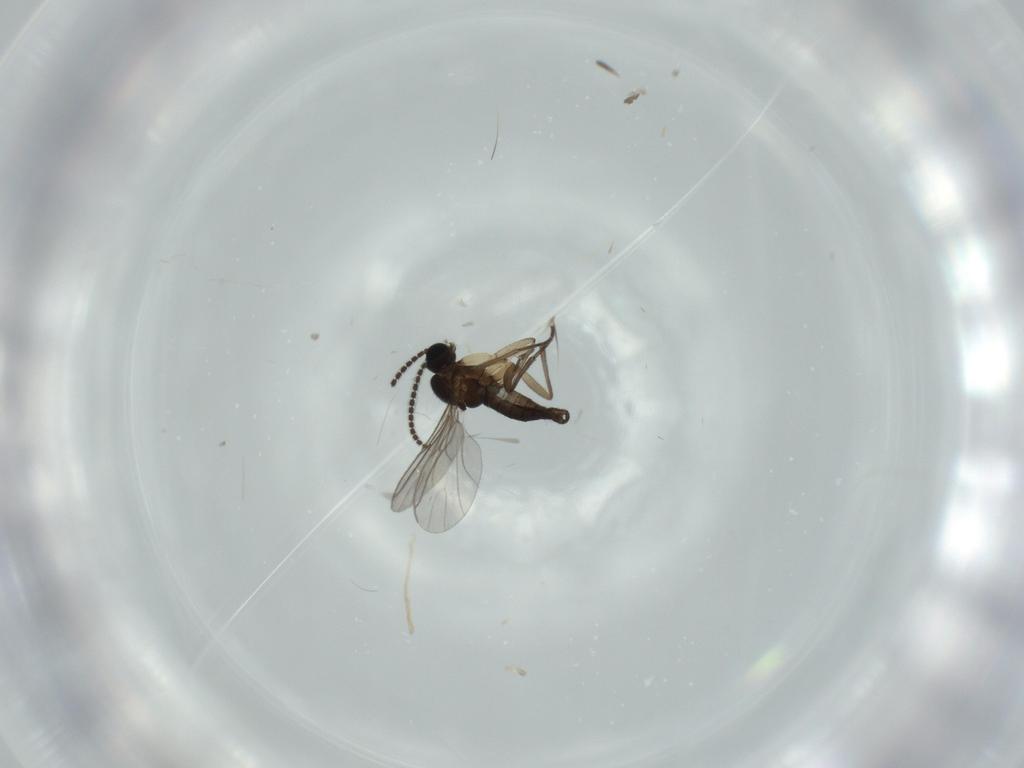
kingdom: Animalia
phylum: Arthropoda
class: Insecta
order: Diptera
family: Sciaridae
